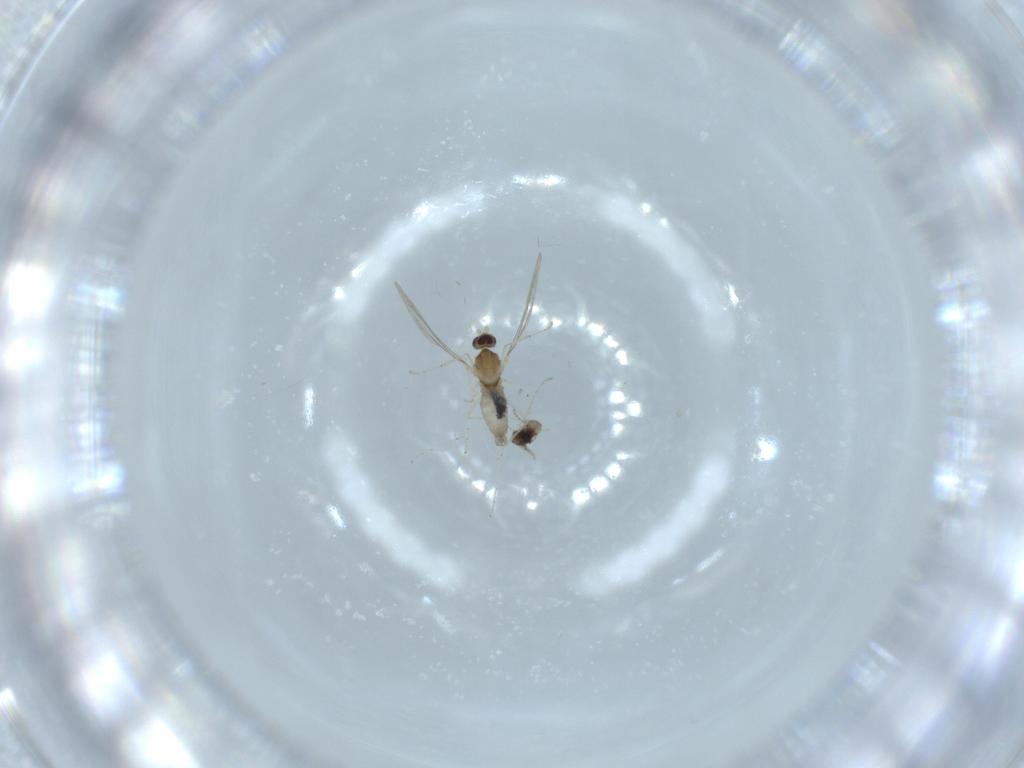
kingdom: Animalia
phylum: Arthropoda
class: Insecta
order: Diptera
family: Cecidomyiidae
